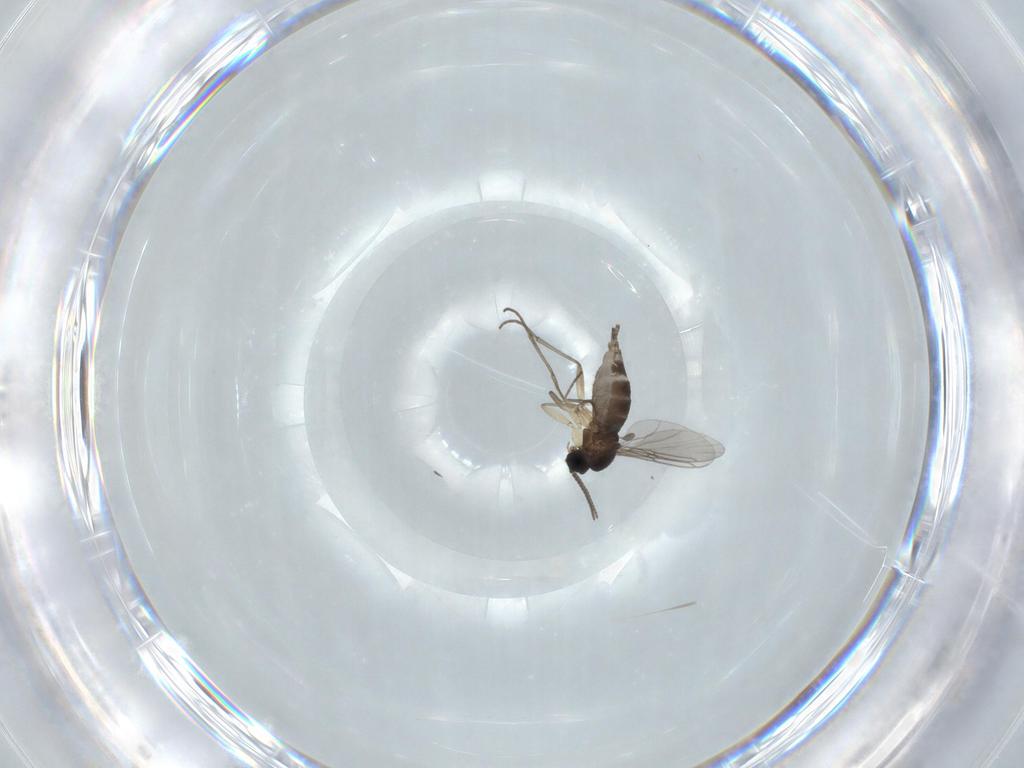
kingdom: Animalia
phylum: Arthropoda
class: Insecta
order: Diptera
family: Sciaridae
